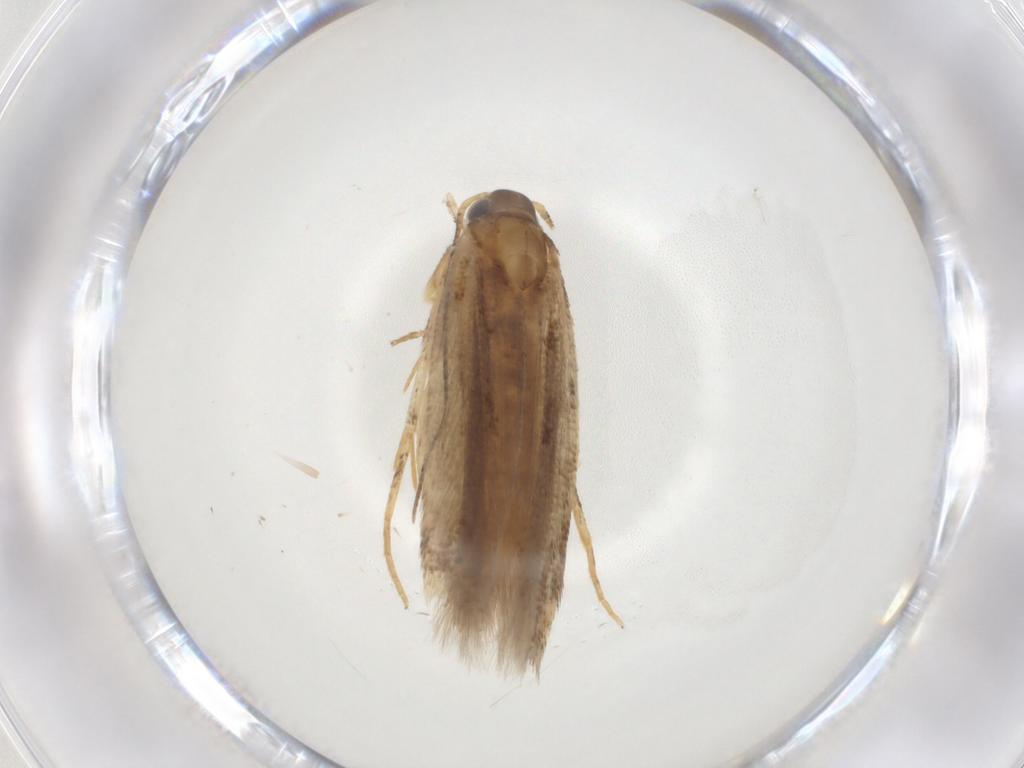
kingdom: Animalia
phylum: Arthropoda
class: Insecta
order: Lepidoptera
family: Gelechiidae
